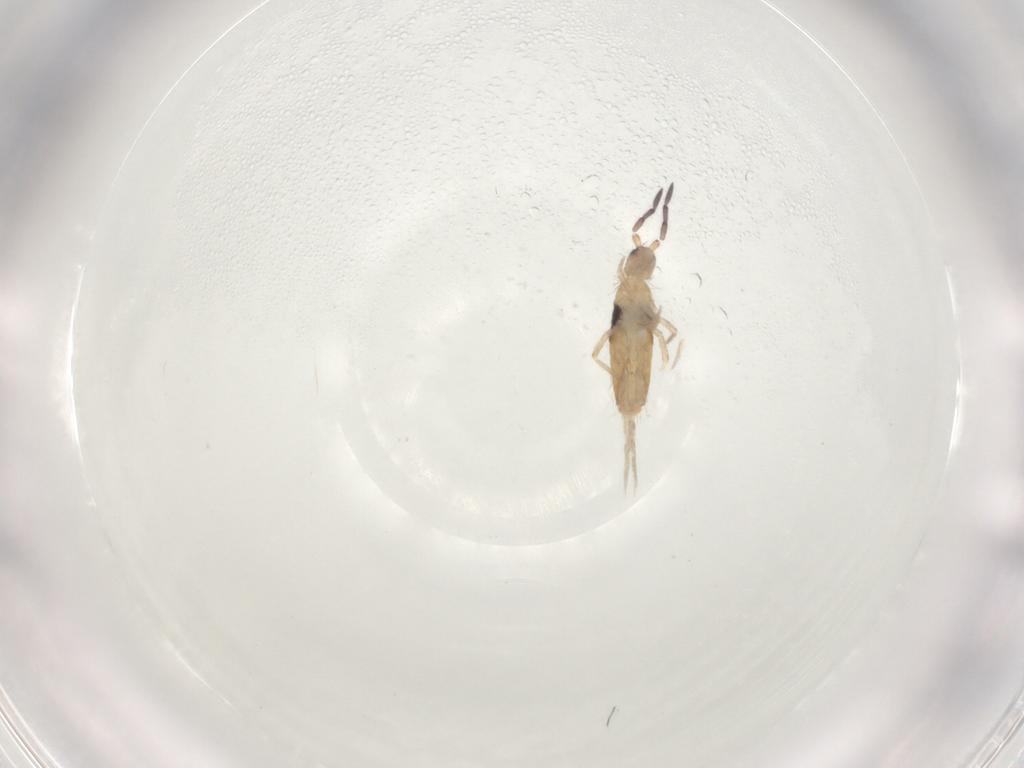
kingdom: Animalia
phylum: Arthropoda
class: Collembola
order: Entomobryomorpha
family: Entomobryidae
